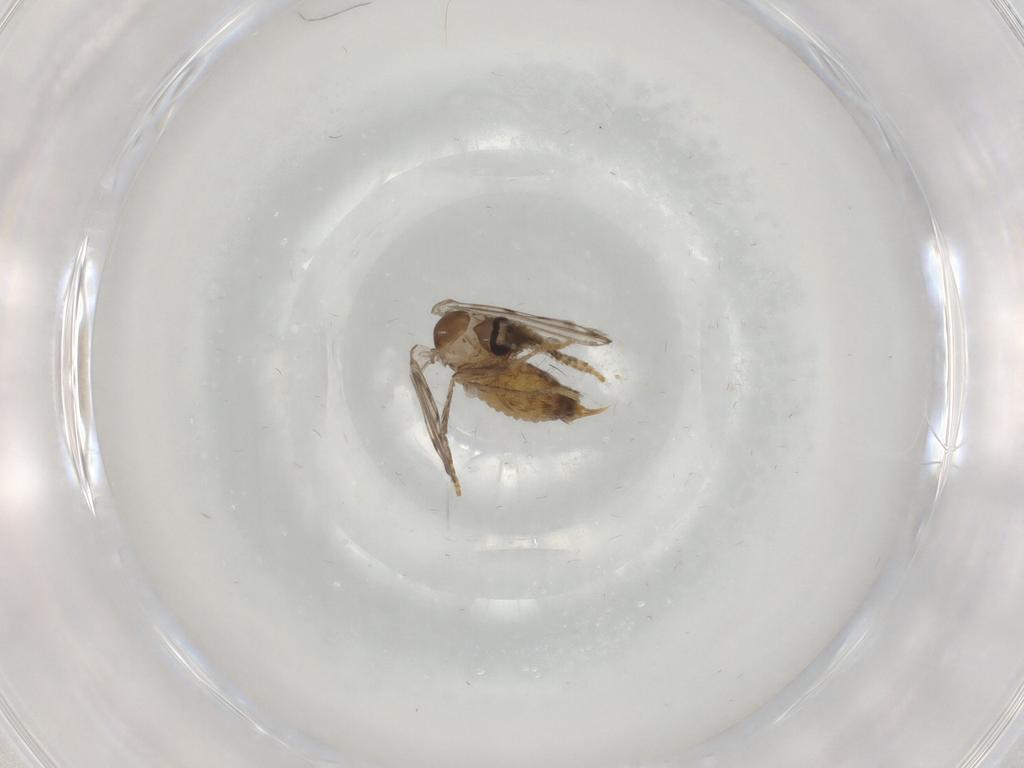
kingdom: Animalia
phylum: Arthropoda
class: Insecta
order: Diptera
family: Psychodidae
